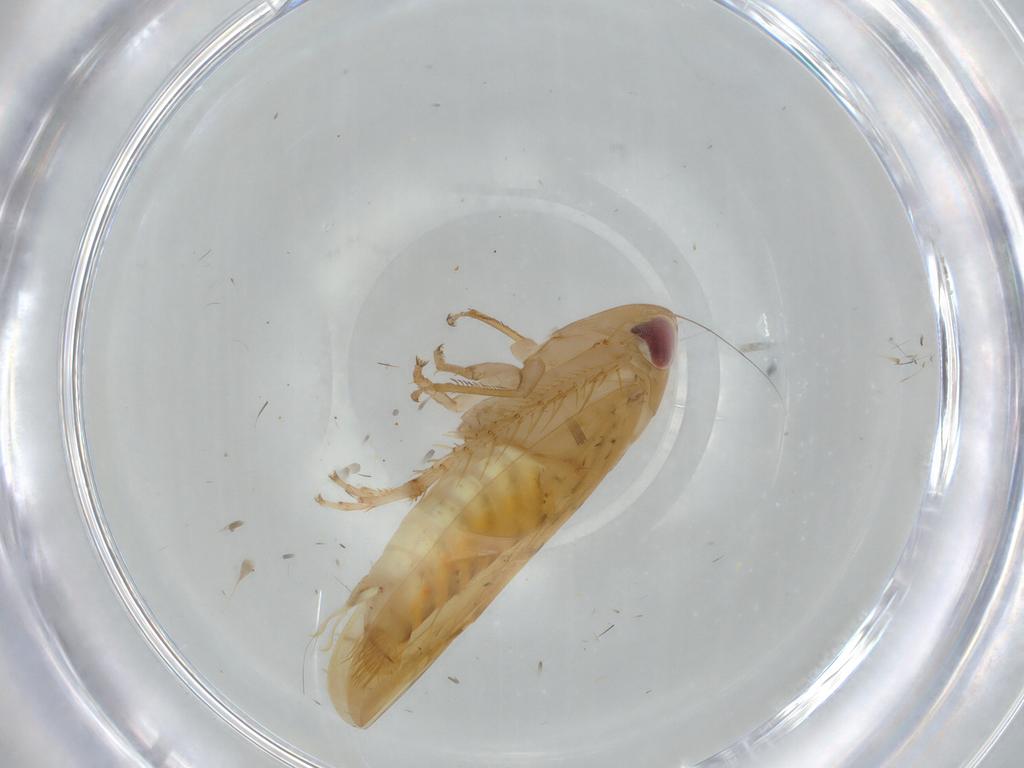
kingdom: Animalia
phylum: Arthropoda
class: Insecta
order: Hemiptera
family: Cicadellidae
